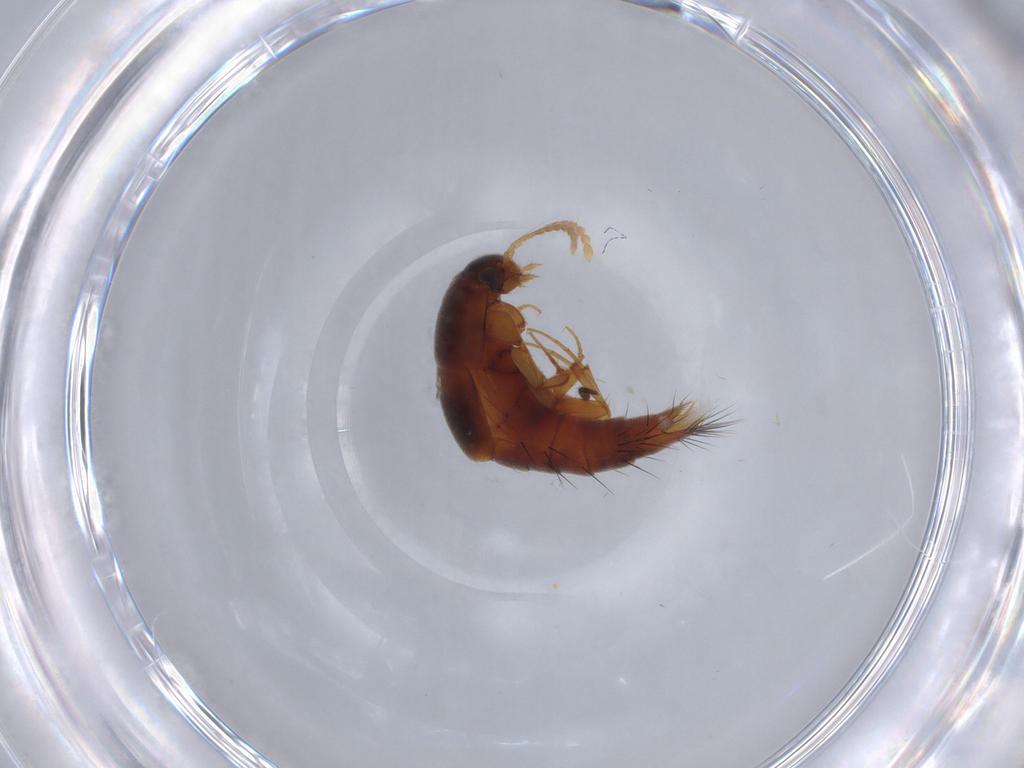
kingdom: Animalia
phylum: Arthropoda
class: Insecta
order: Coleoptera
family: Staphylinidae
